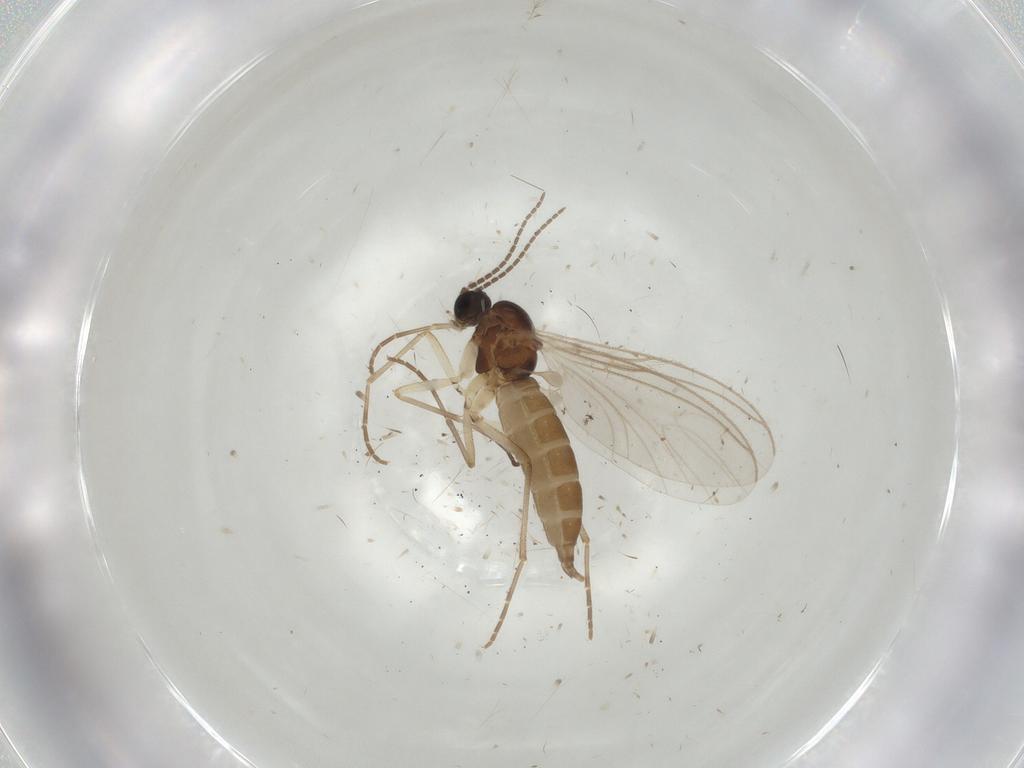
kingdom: Animalia
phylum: Arthropoda
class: Insecta
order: Diptera
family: Sciaridae
